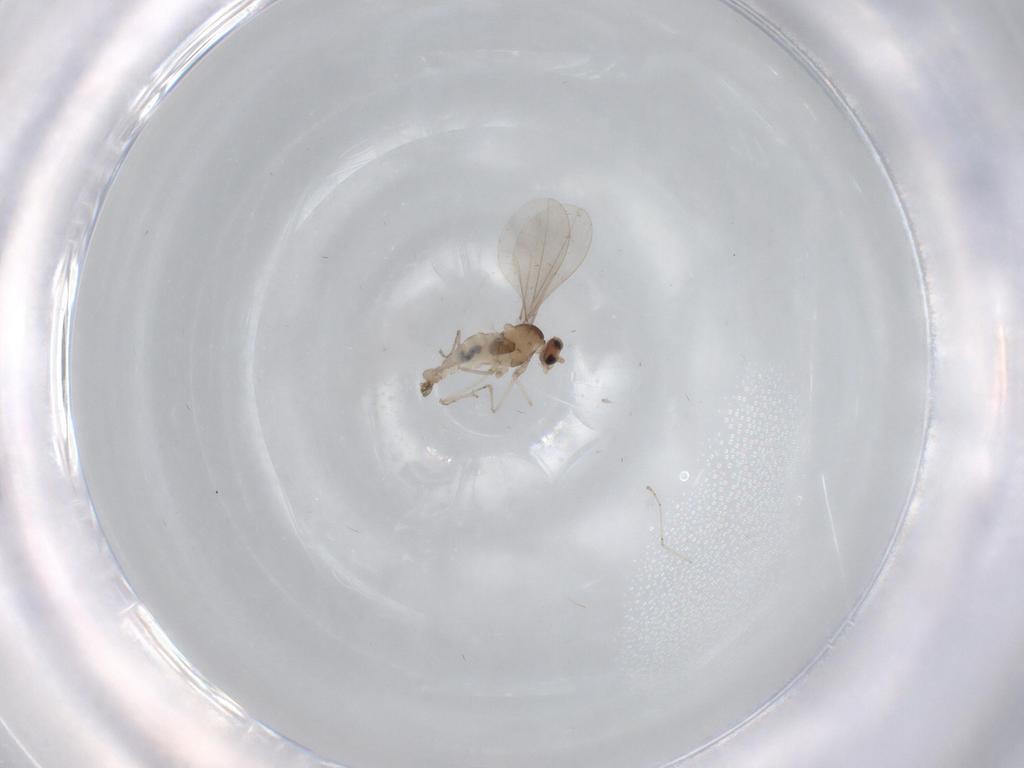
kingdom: Animalia
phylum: Arthropoda
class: Insecta
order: Diptera
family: Cecidomyiidae
